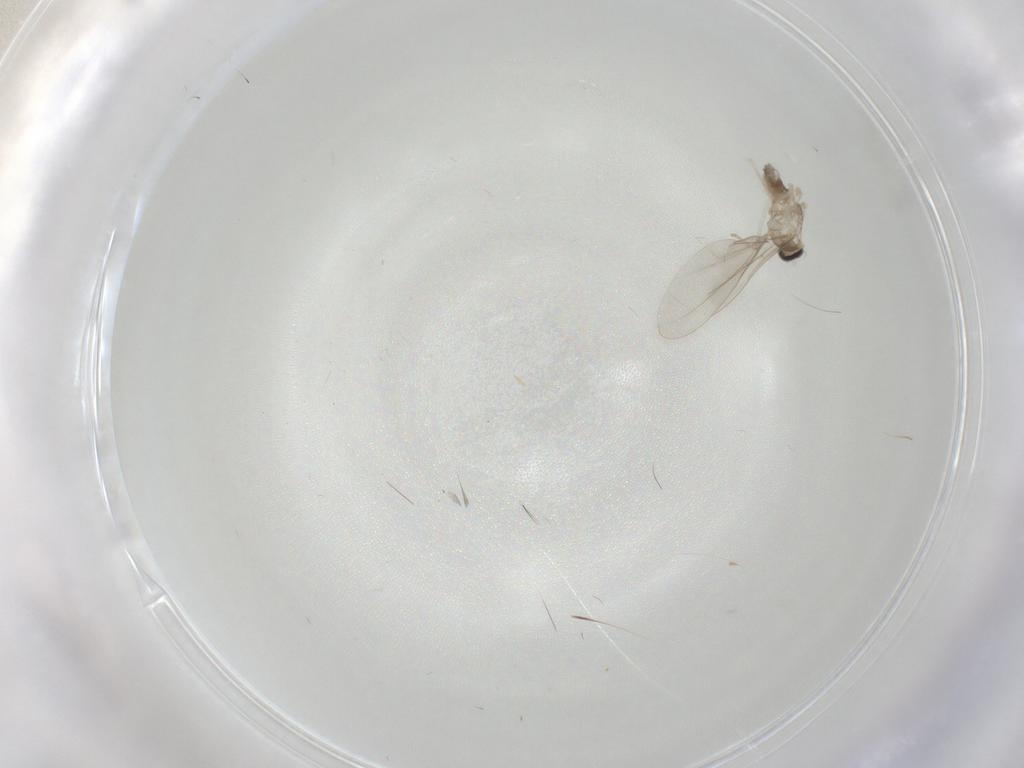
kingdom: Animalia
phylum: Arthropoda
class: Insecta
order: Diptera
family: Cecidomyiidae
